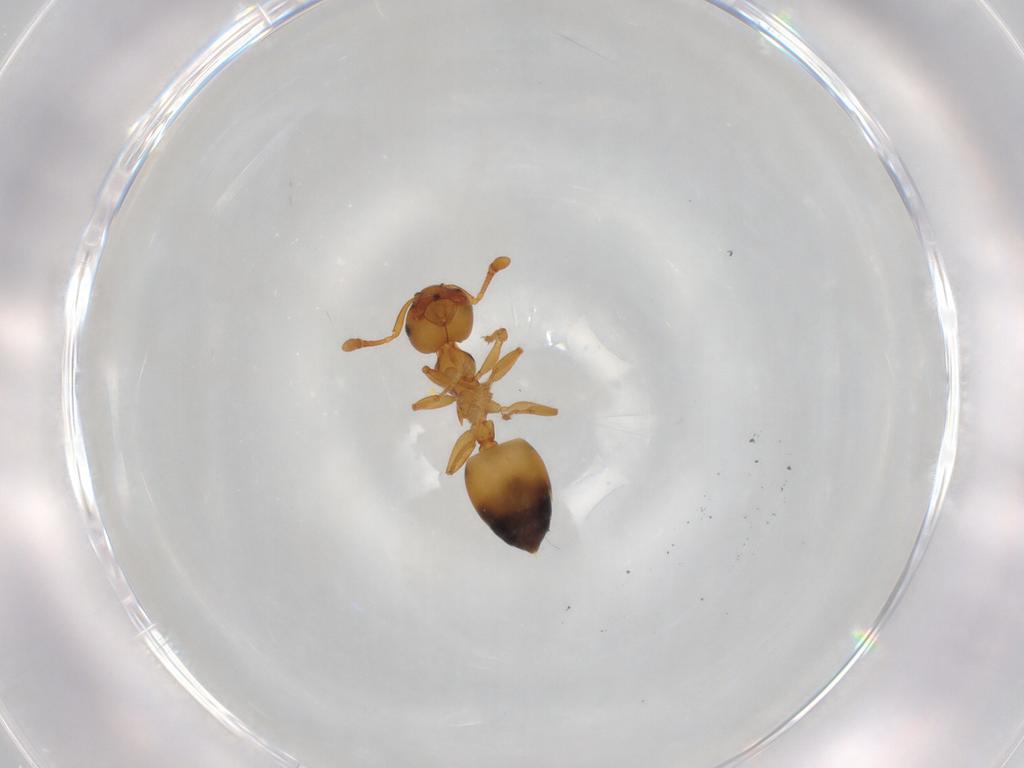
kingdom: Animalia
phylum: Arthropoda
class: Insecta
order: Hymenoptera
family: Formicidae
